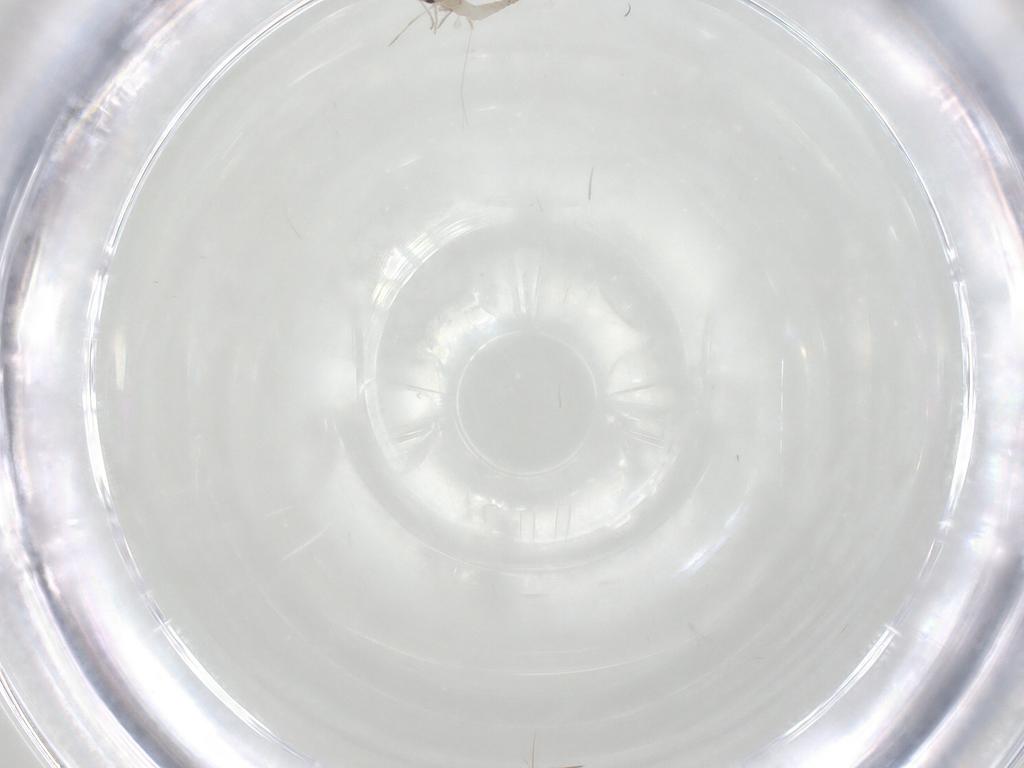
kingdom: Animalia
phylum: Arthropoda
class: Insecta
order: Diptera
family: Cecidomyiidae
